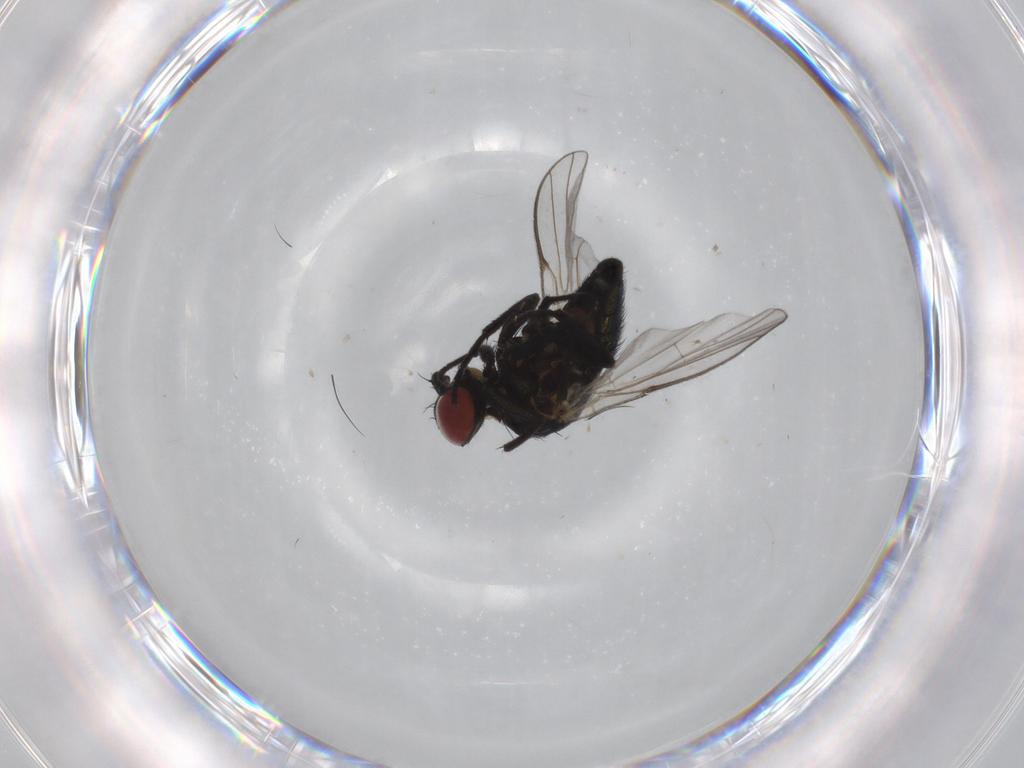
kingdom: Animalia
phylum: Arthropoda
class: Insecta
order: Diptera
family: Agromyzidae
